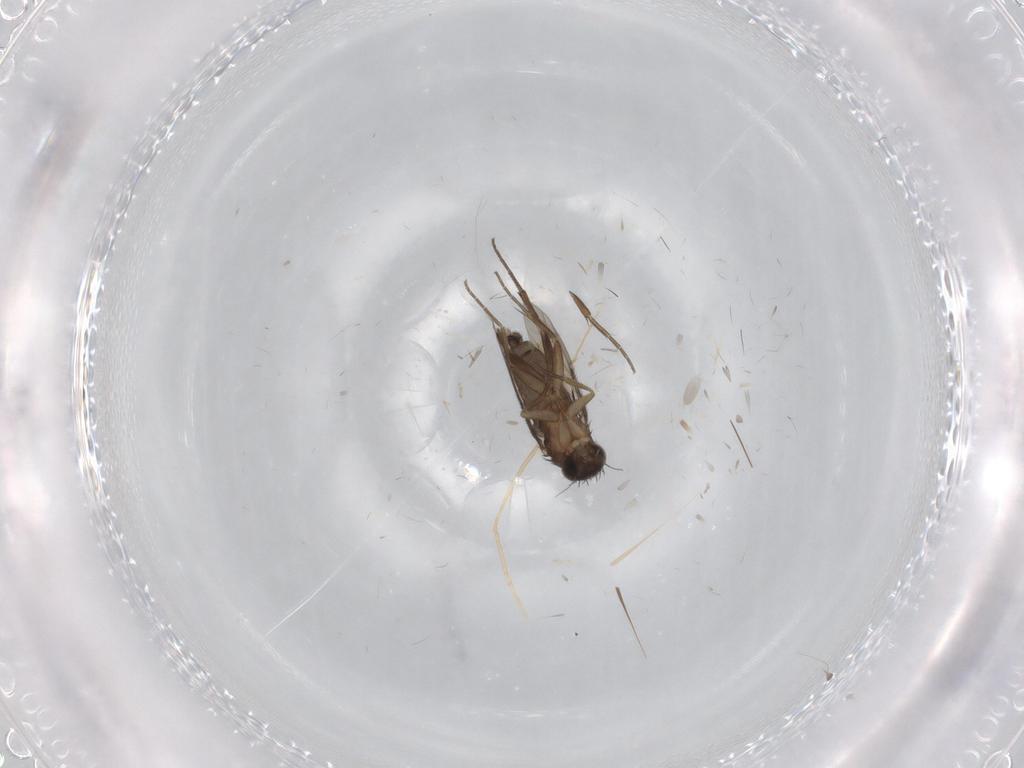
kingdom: Animalia
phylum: Arthropoda
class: Insecta
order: Diptera
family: Phoridae
